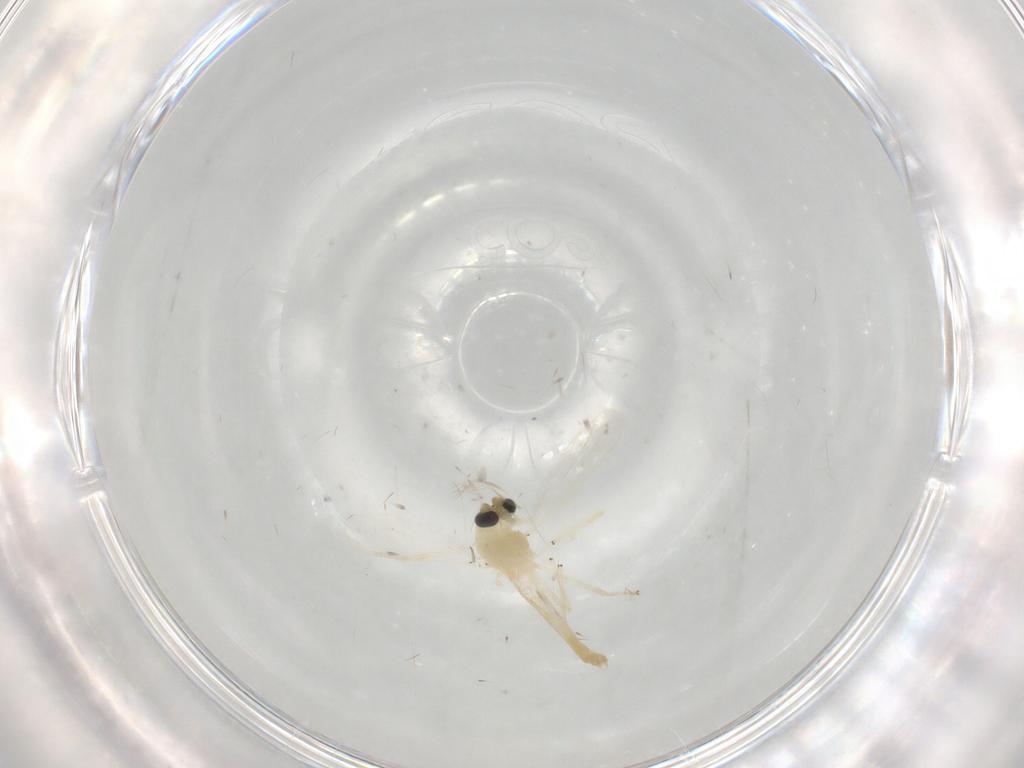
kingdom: Animalia
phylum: Arthropoda
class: Insecta
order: Diptera
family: Chironomidae
